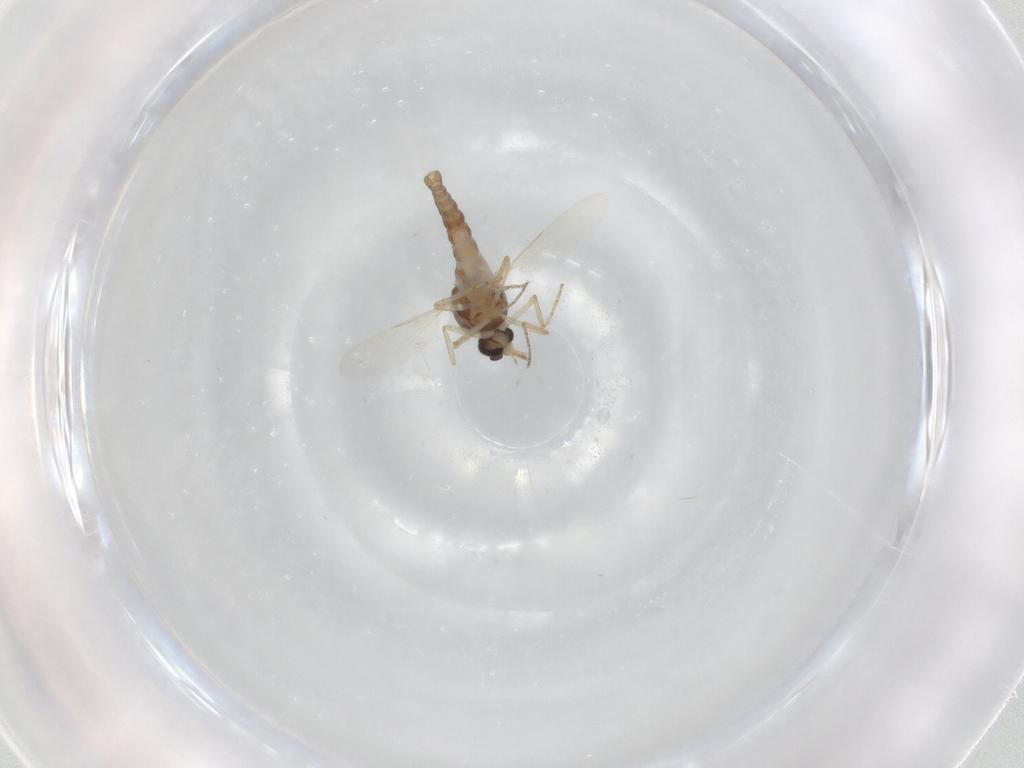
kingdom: Animalia
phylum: Arthropoda
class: Insecta
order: Diptera
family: Ceratopogonidae
